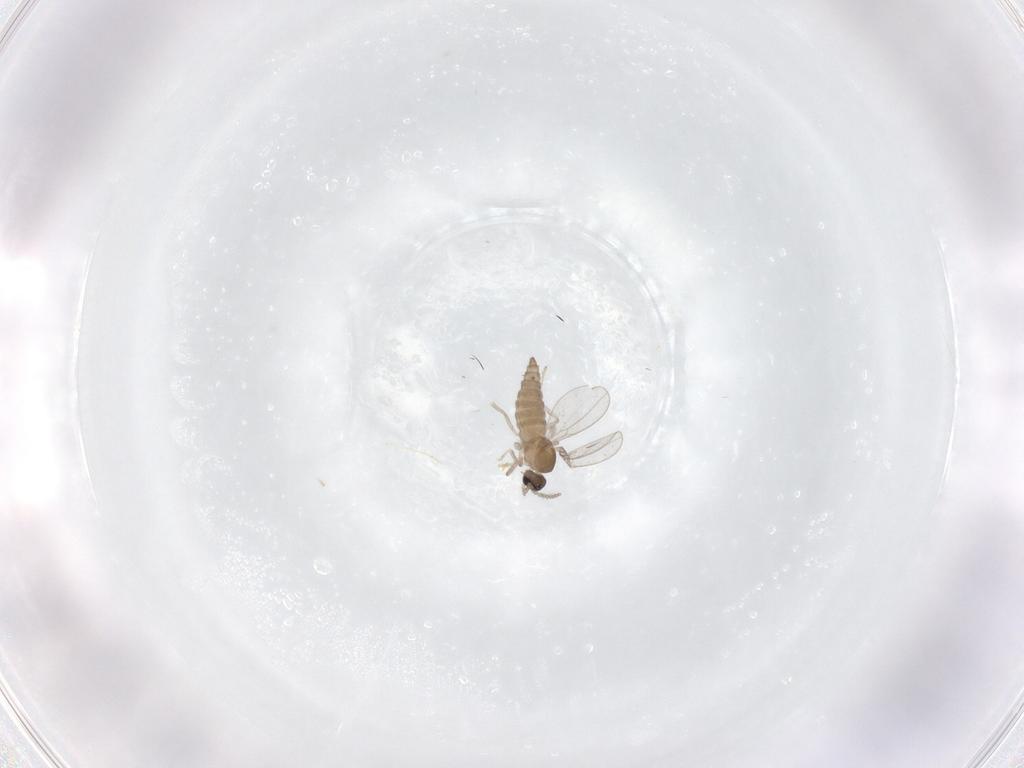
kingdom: Animalia
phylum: Arthropoda
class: Insecta
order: Diptera
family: Cecidomyiidae
